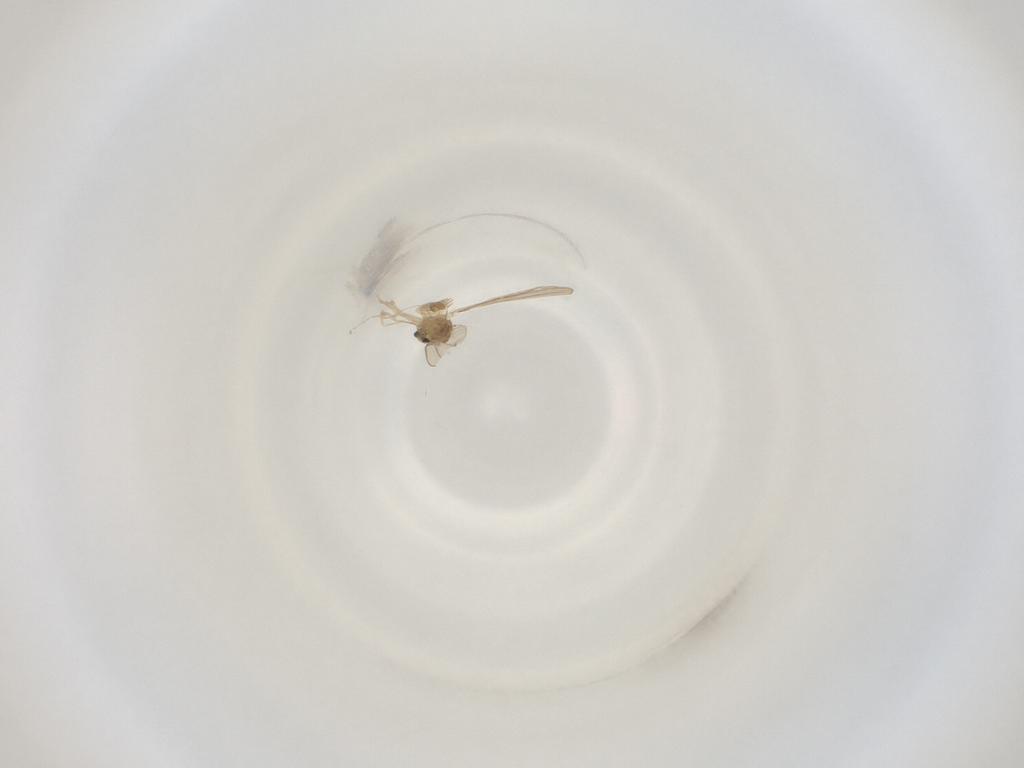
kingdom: Animalia
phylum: Arthropoda
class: Insecta
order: Diptera
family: Cecidomyiidae
